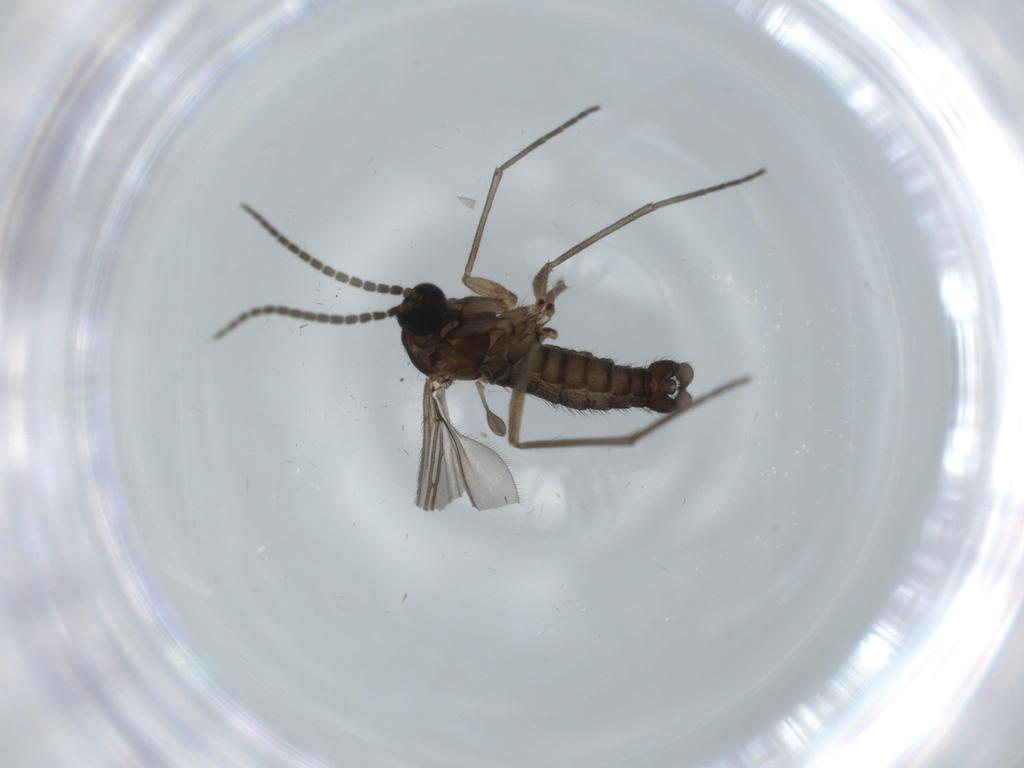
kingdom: Animalia
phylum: Arthropoda
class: Insecta
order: Diptera
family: Sciaridae
